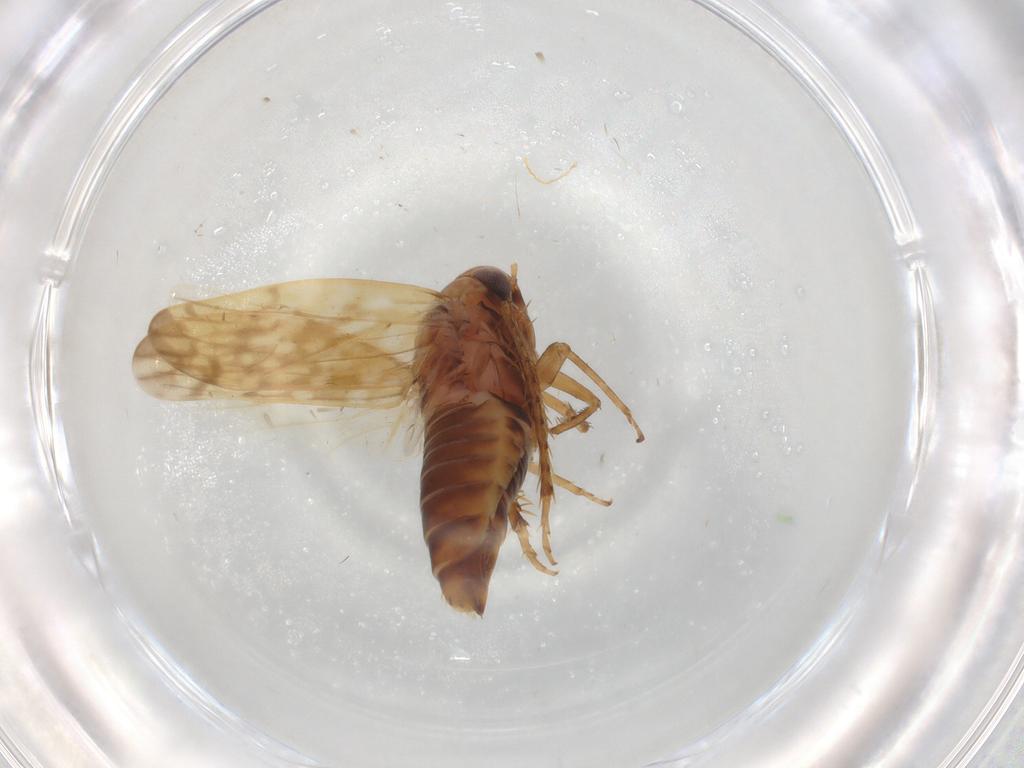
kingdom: Animalia
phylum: Arthropoda
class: Insecta
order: Hemiptera
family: Cicadellidae
